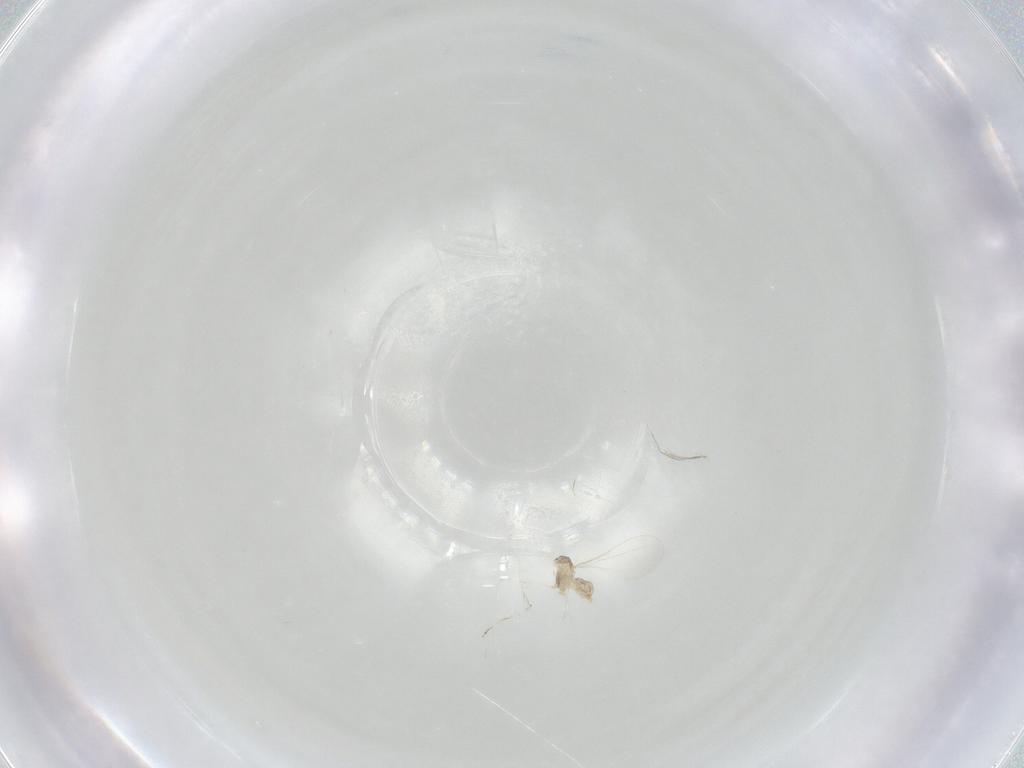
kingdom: Animalia
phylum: Arthropoda
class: Insecta
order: Diptera
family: Cecidomyiidae
